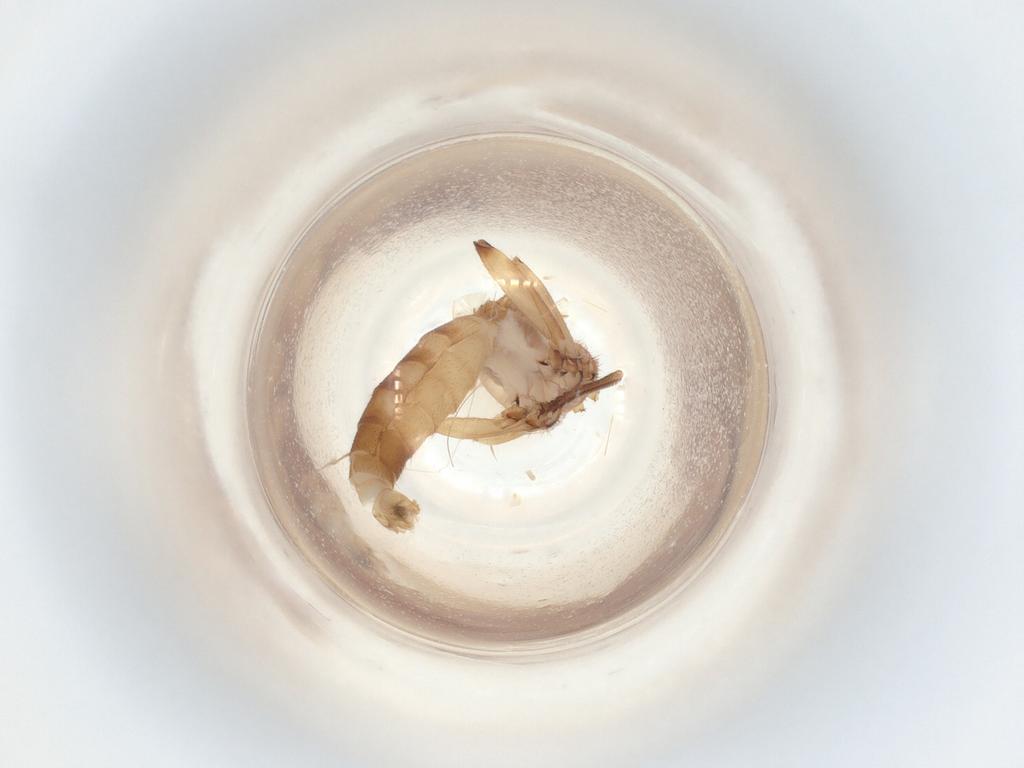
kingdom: Animalia
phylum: Arthropoda
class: Insecta
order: Diptera
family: Mycetophilidae
